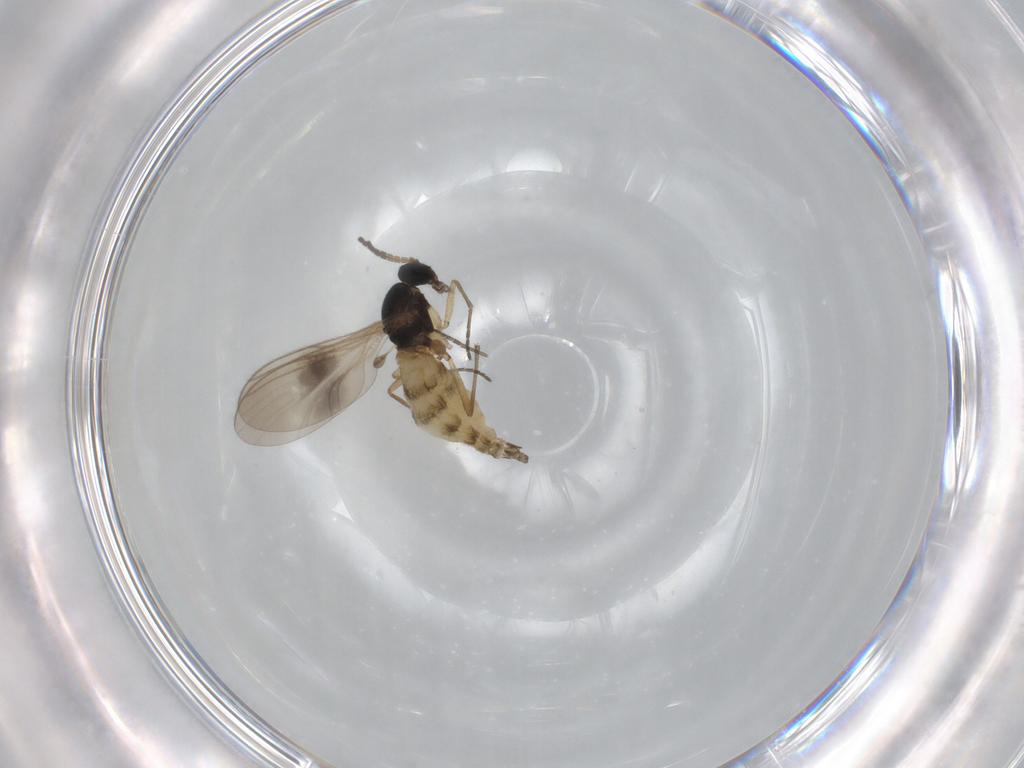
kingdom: Animalia
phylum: Arthropoda
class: Insecta
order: Diptera
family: Sciaridae
